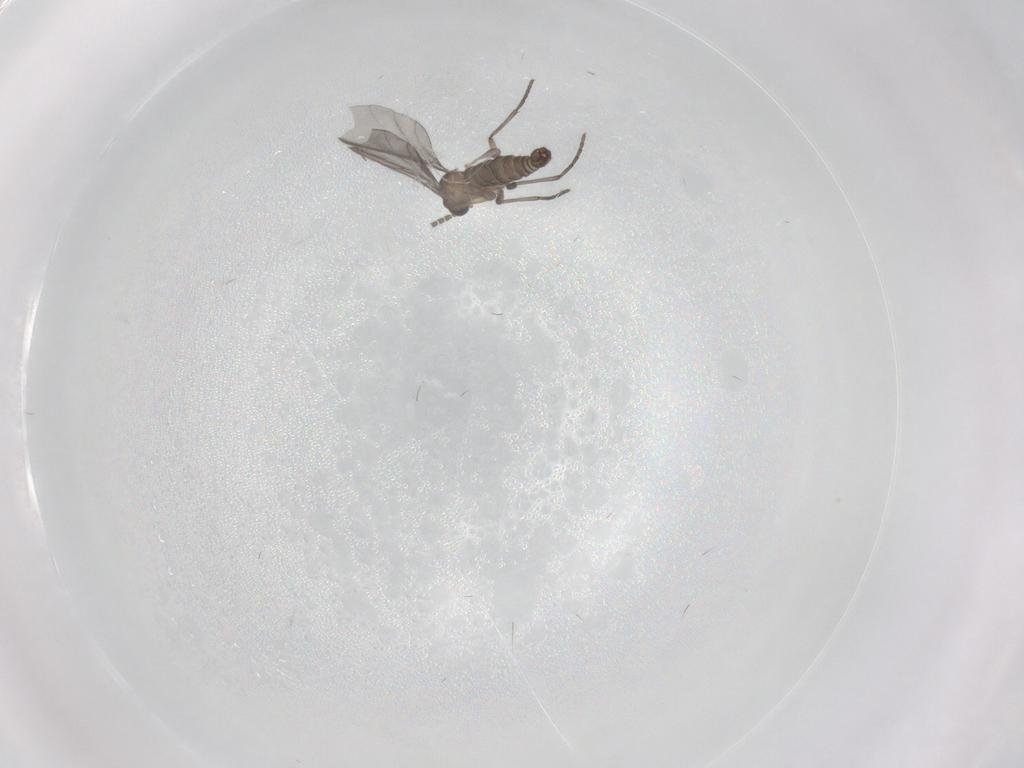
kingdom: Animalia
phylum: Arthropoda
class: Insecta
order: Diptera
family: Sciaridae
